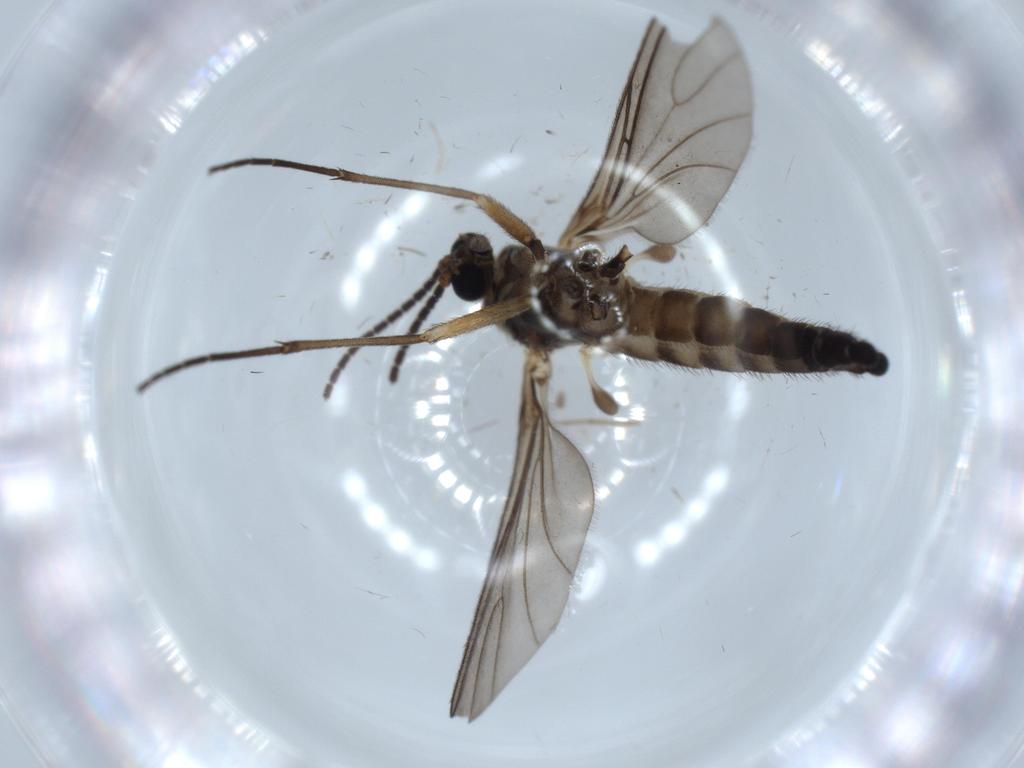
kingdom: Animalia
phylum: Arthropoda
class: Insecta
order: Diptera
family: Sciaridae
